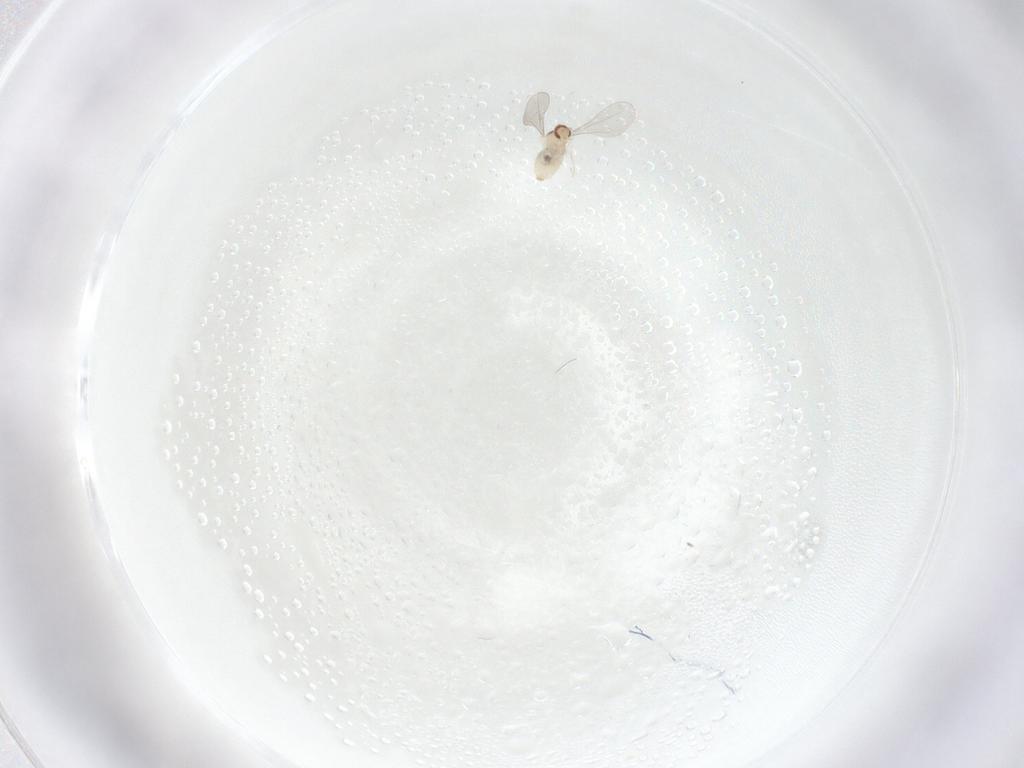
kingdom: Animalia
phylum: Arthropoda
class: Insecta
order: Diptera
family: Cecidomyiidae
